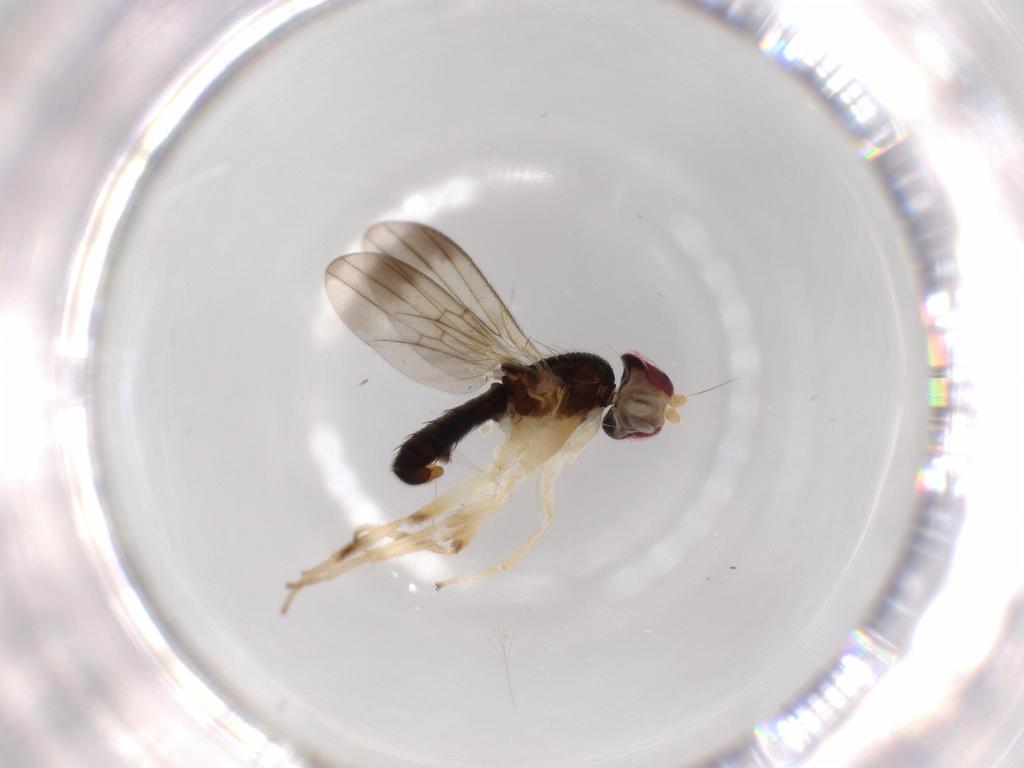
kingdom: Animalia
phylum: Arthropoda
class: Insecta
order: Diptera
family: Clusiidae
